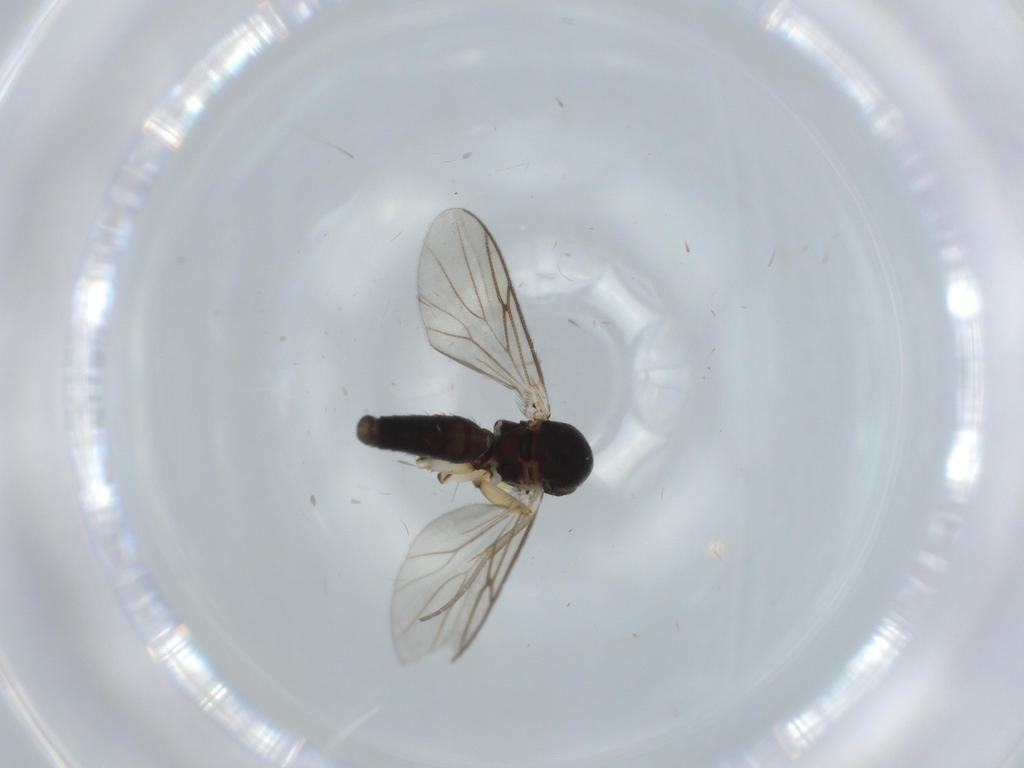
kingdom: Animalia
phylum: Arthropoda
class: Insecta
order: Diptera
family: Phoridae
